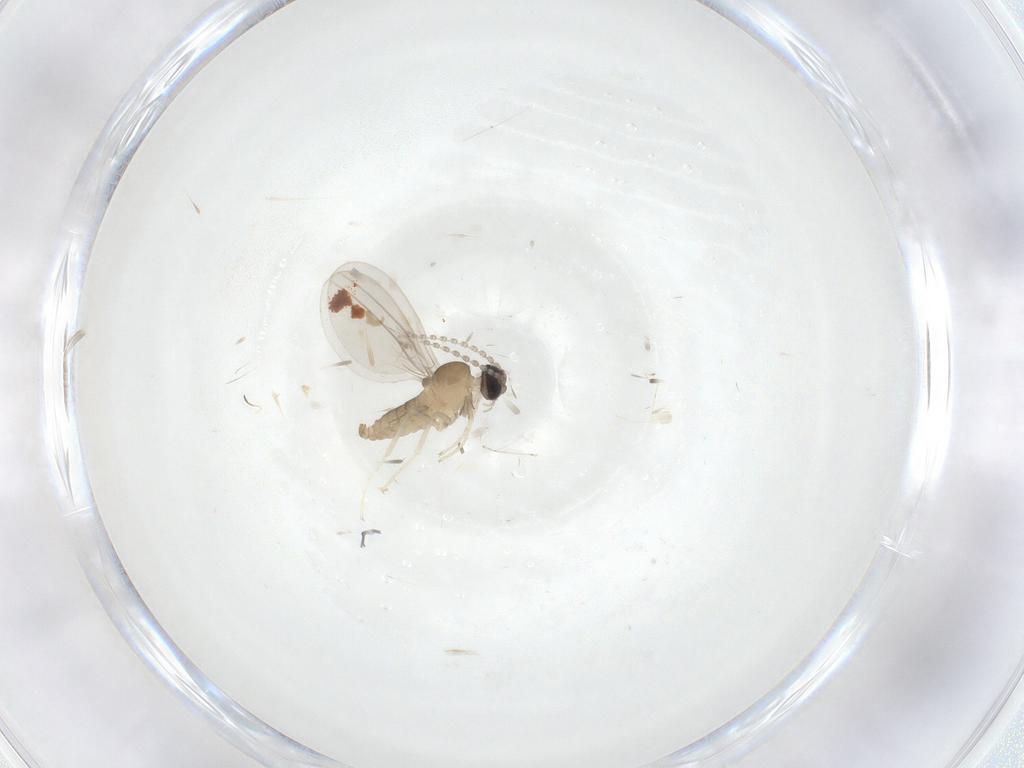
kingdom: Animalia
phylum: Arthropoda
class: Insecta
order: Diptera
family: Cecidomyiidae
